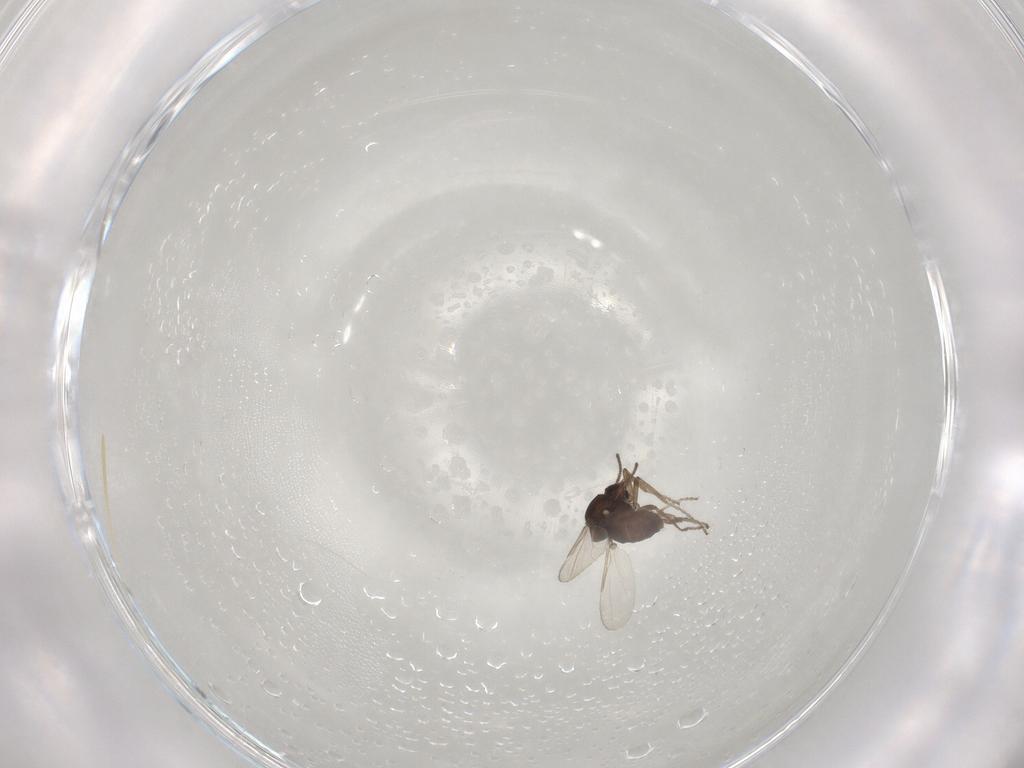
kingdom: Animalia
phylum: Arthropoda
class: Insecta
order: Diptera
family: Ceratopogonidae
